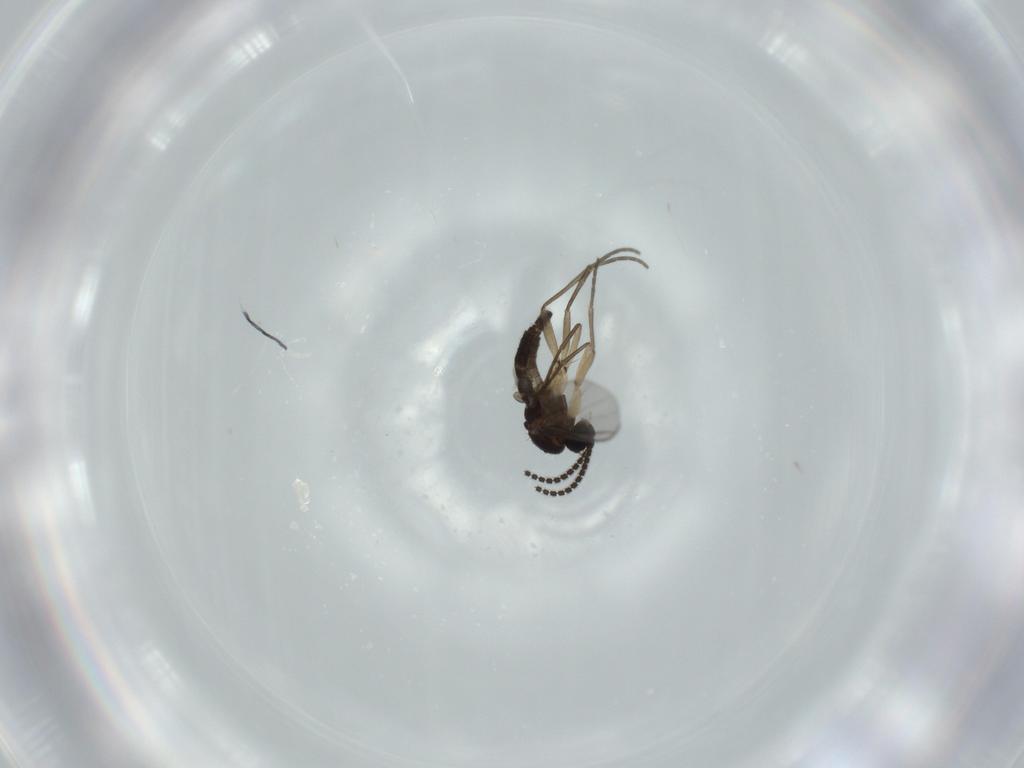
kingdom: Animalia
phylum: Arthropoda
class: Insecta
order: Diptera
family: Sciaridae
